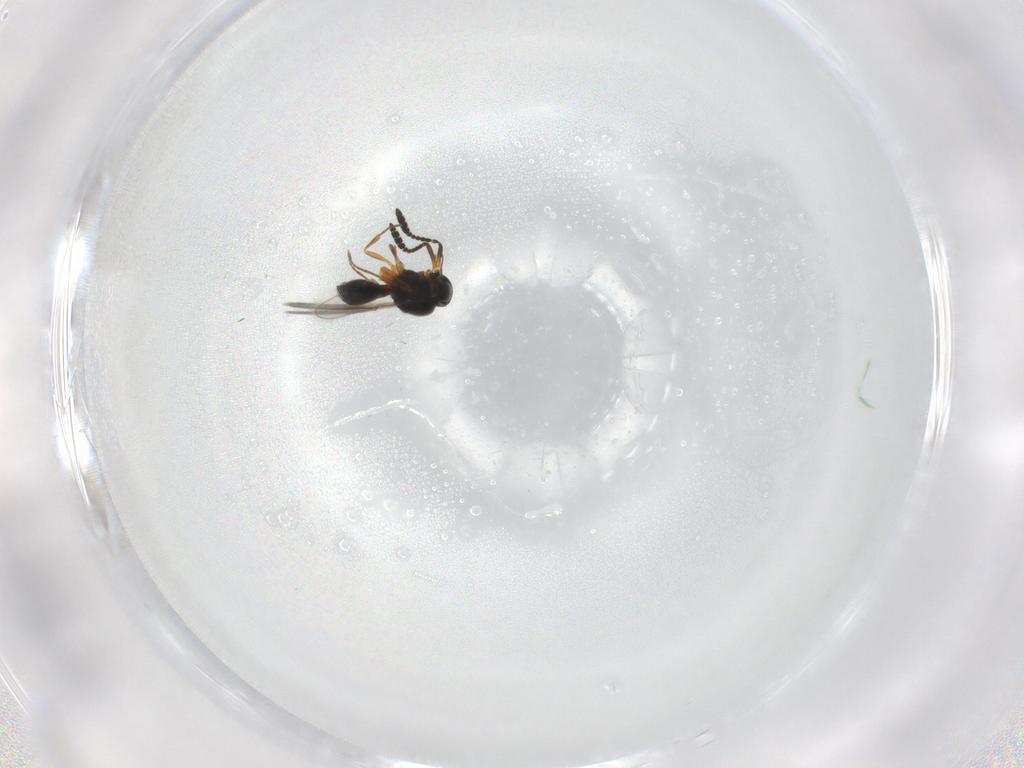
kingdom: Animalia
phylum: Arthropoda
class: Insecta
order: Hymenoptera
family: Scelionidae
